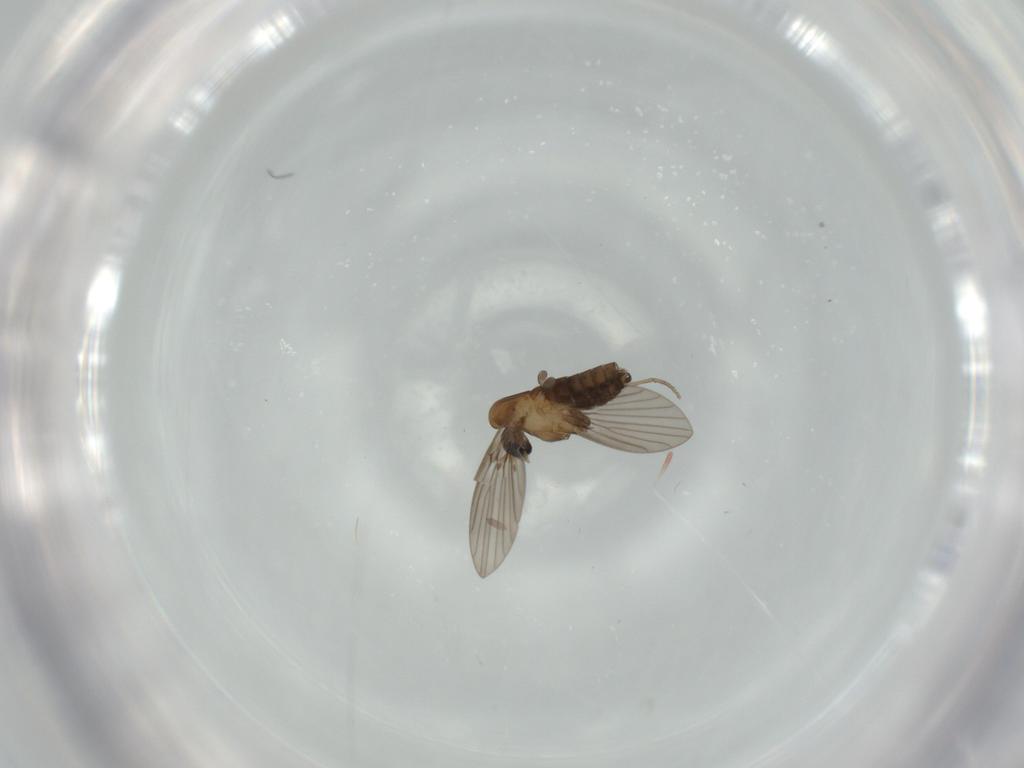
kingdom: Animalia
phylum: Arthropoda
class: Insecta
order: Diptera
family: Psychodidae
